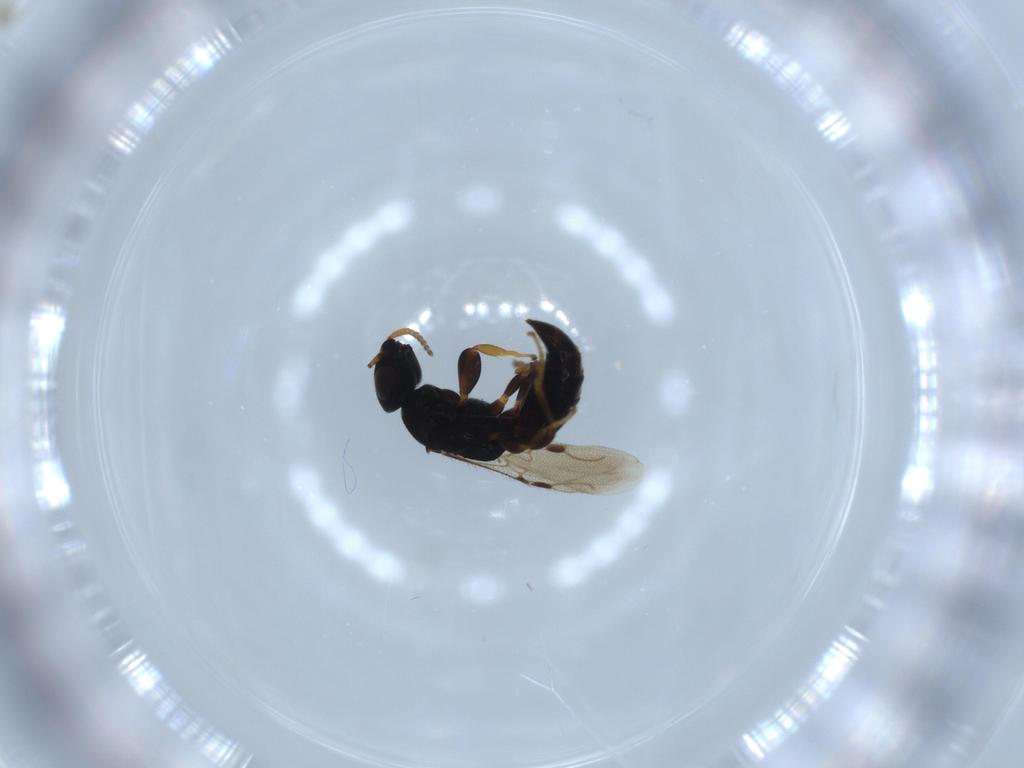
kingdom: Animalia
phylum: Arthropoda
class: Insecta
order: Hymenoptera
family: Bethylidae
